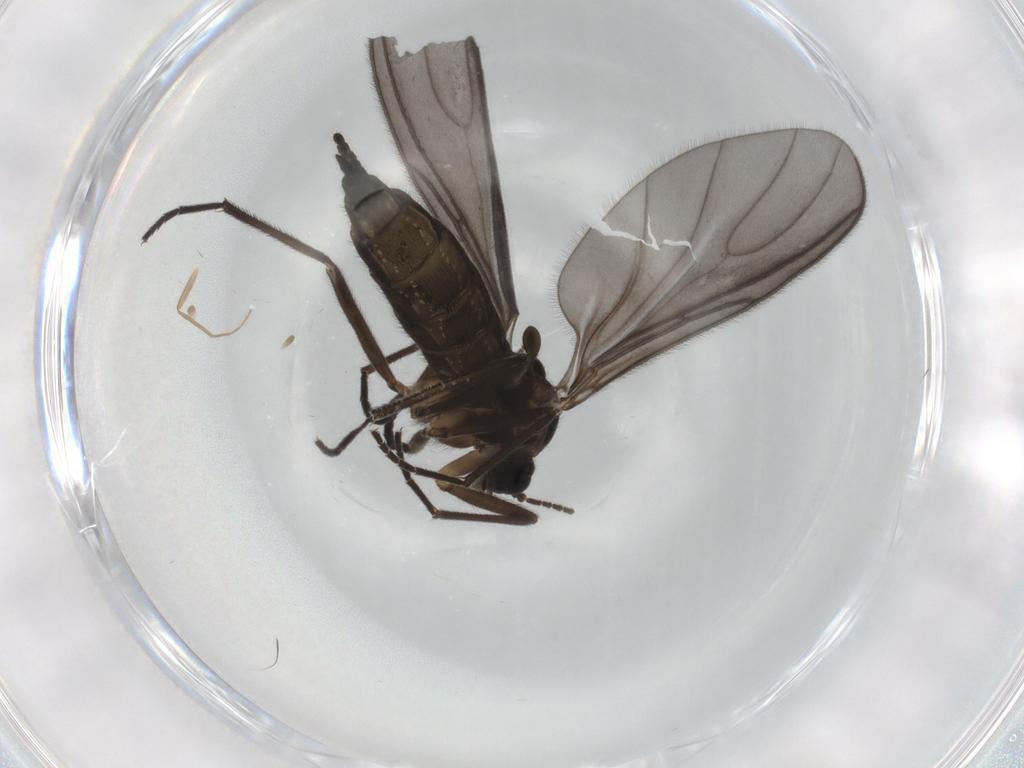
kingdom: Animalia
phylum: Arthropoda
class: Insecta
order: Diptera
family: Sciaridae
